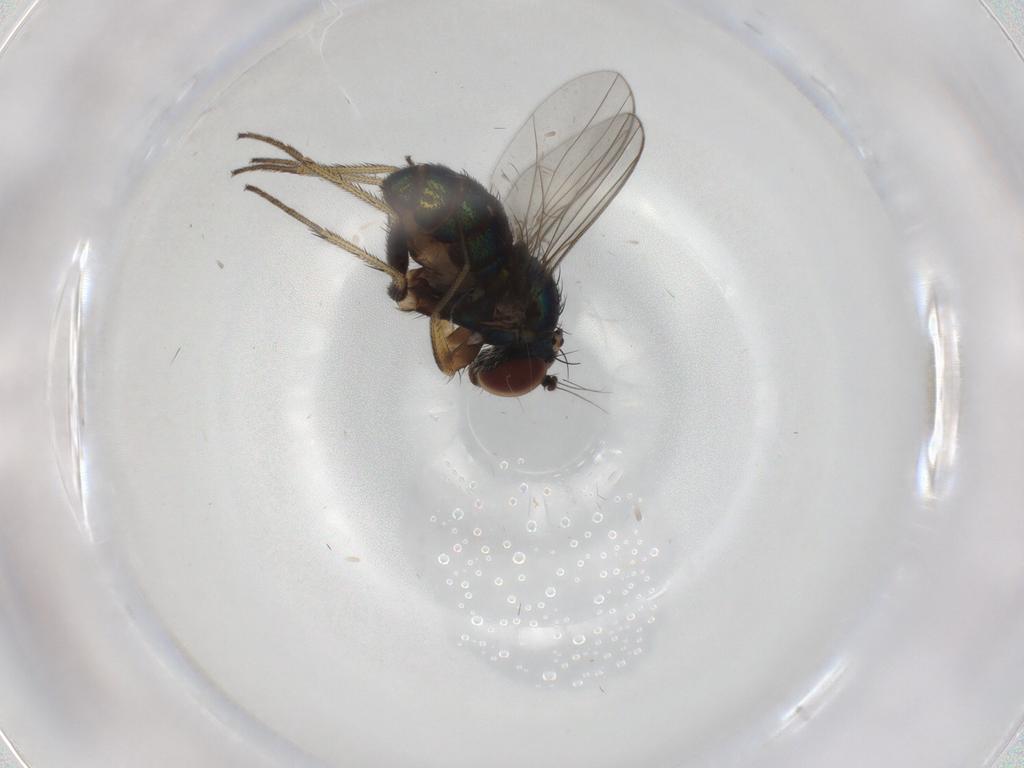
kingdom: Animalia
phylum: Arthropoda
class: Insecta
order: Diptera
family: Cecidomyiidae
